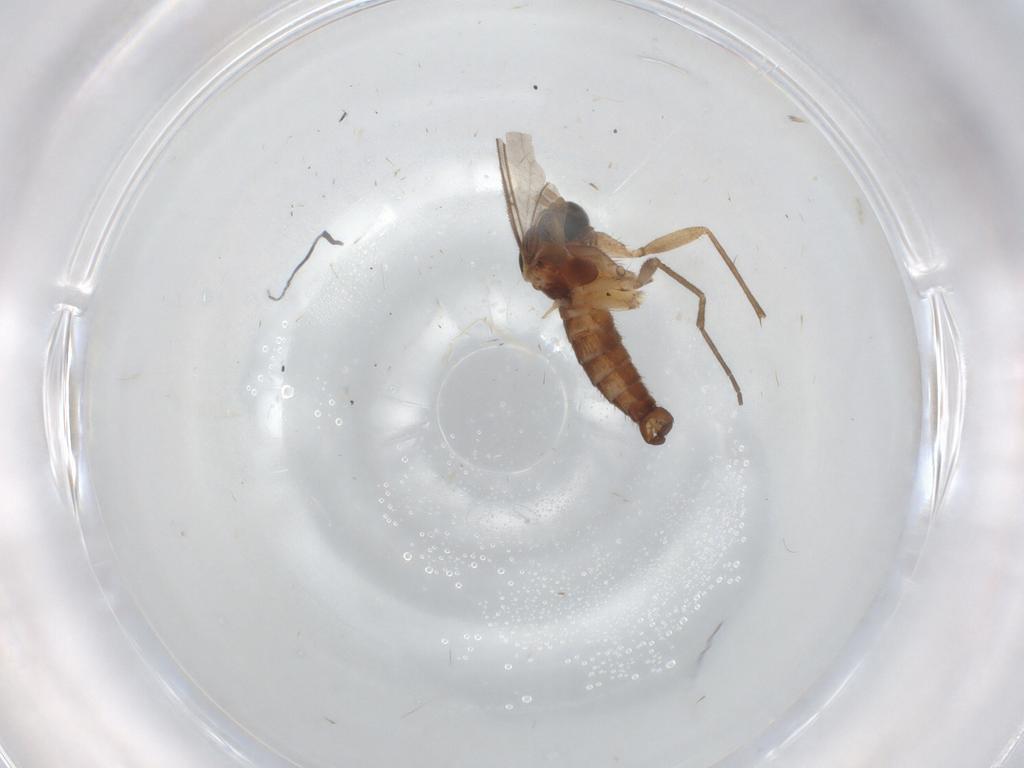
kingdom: Animalia
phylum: Arthropoda
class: Insecta
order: Diptera
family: Sciaridae
